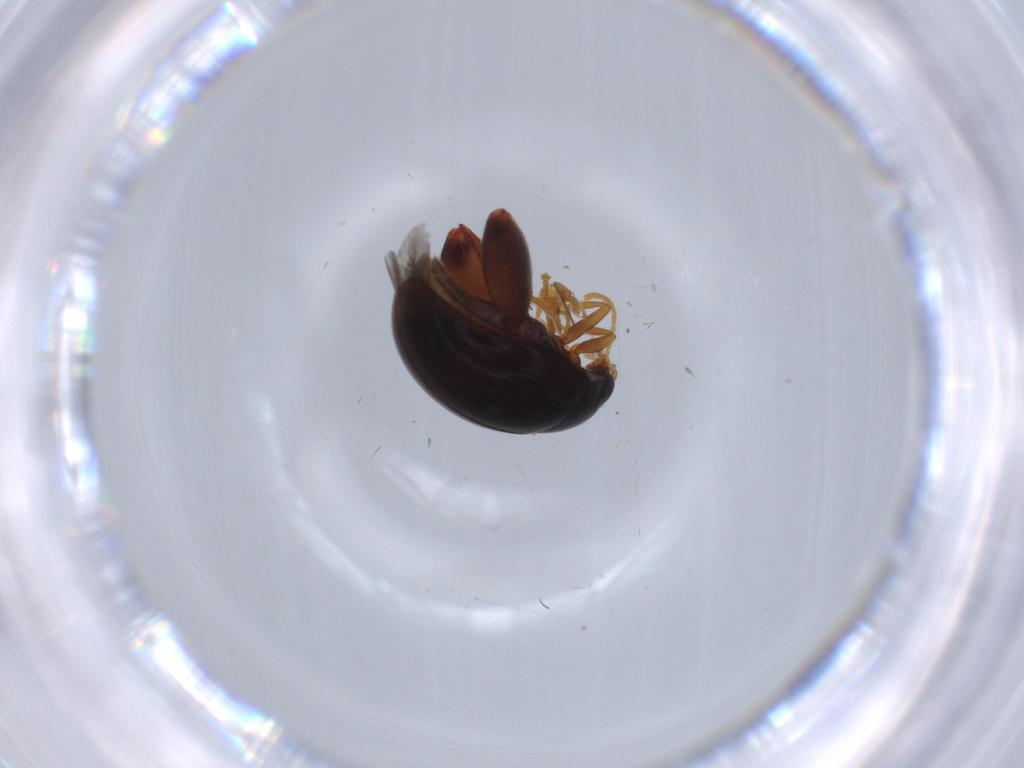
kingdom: Animalia
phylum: Arthropoda
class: Insecta
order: Coleoptera
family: Chrysomelidae
